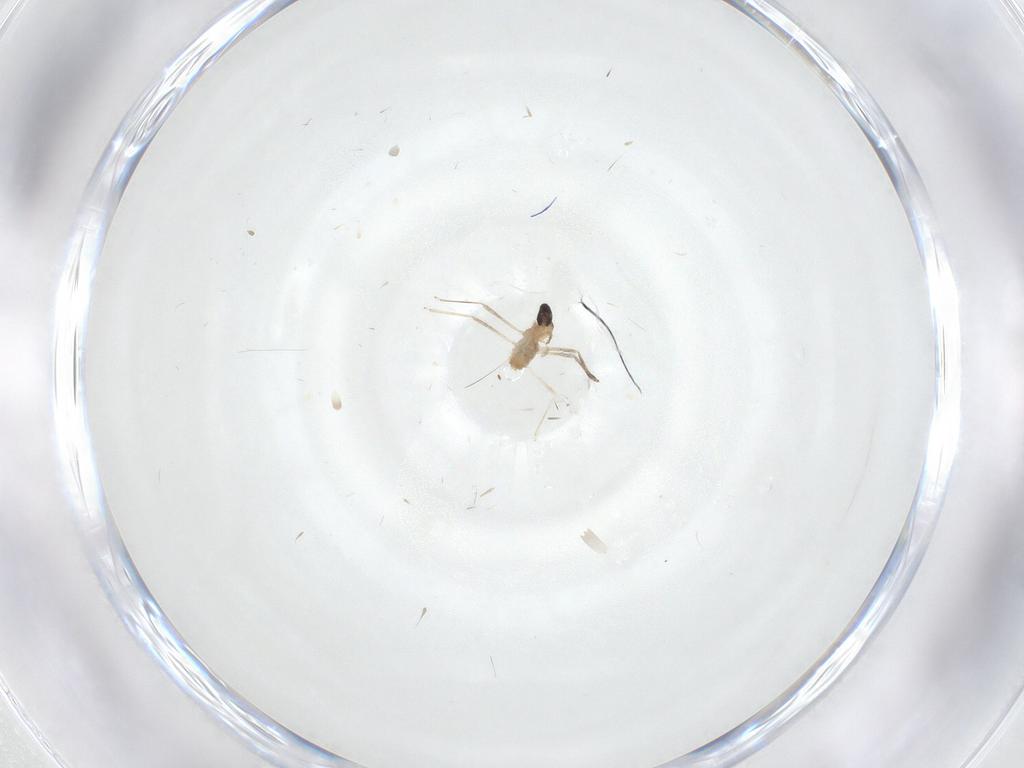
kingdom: Animalia
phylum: Arthropoda
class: Insecta
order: Diptera
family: Cecidomyiidae
